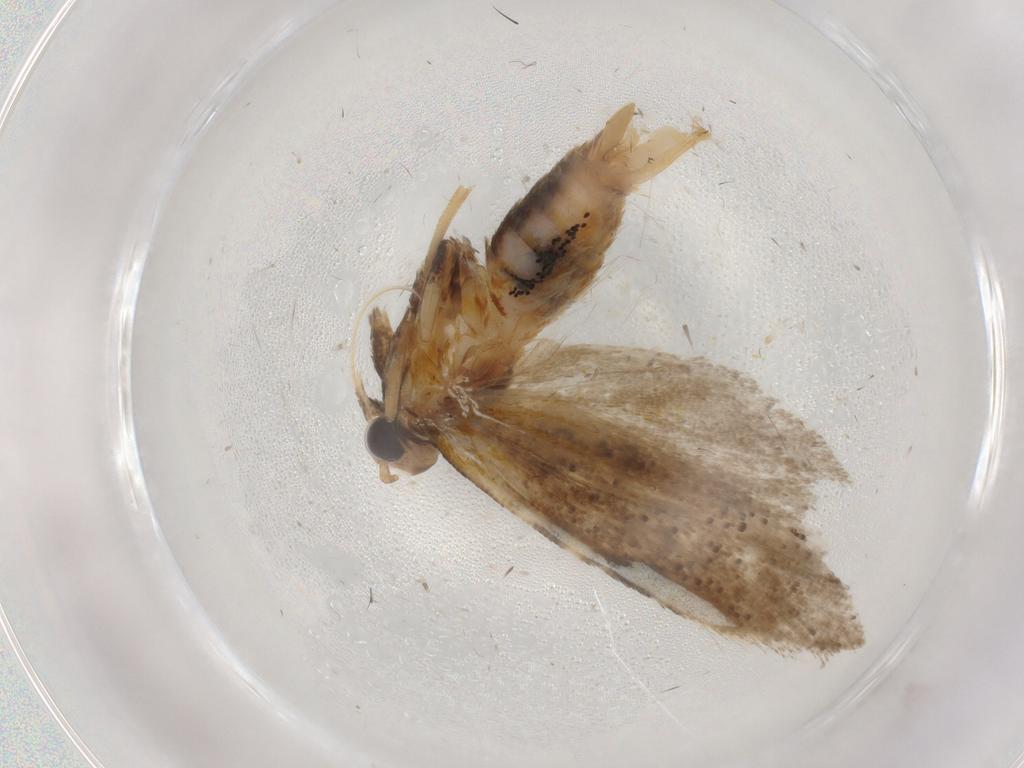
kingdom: Animalia
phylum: Arthropoda
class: Insecta
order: Lepidoptera
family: Gelechiidae
